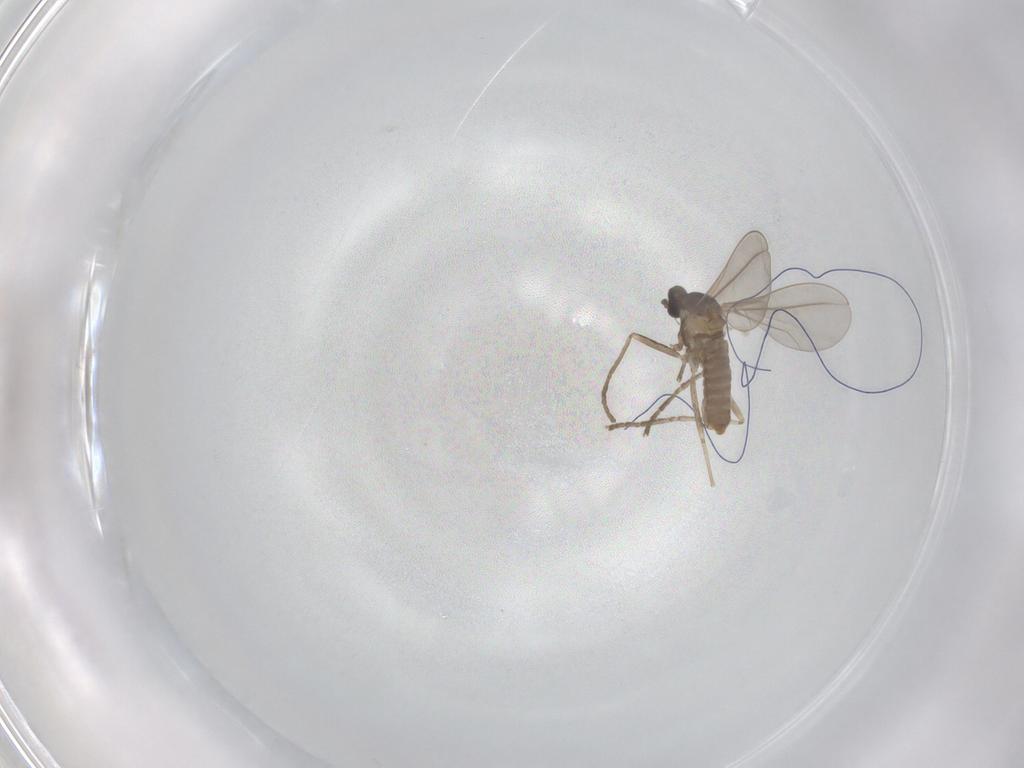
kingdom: Animalia
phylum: Arthropoda
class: Insecta
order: Diptera
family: Cecidomyiidae
